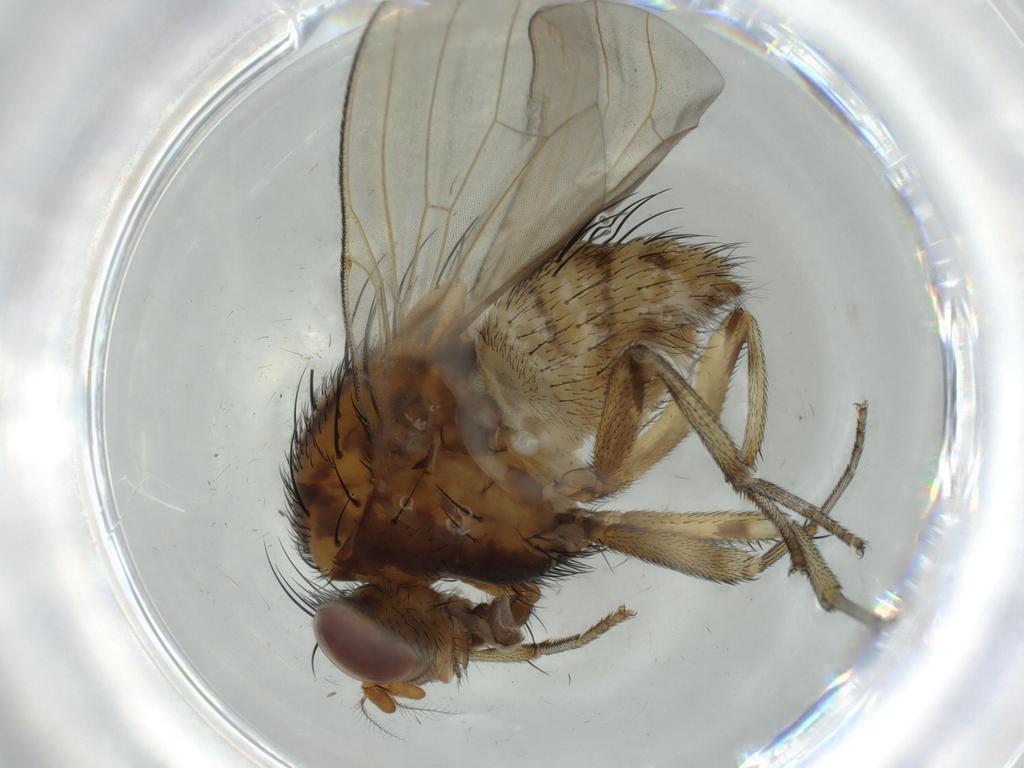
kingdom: Animalia
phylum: Arthropoda
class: Insecta
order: Diptera
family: Chironomidae
